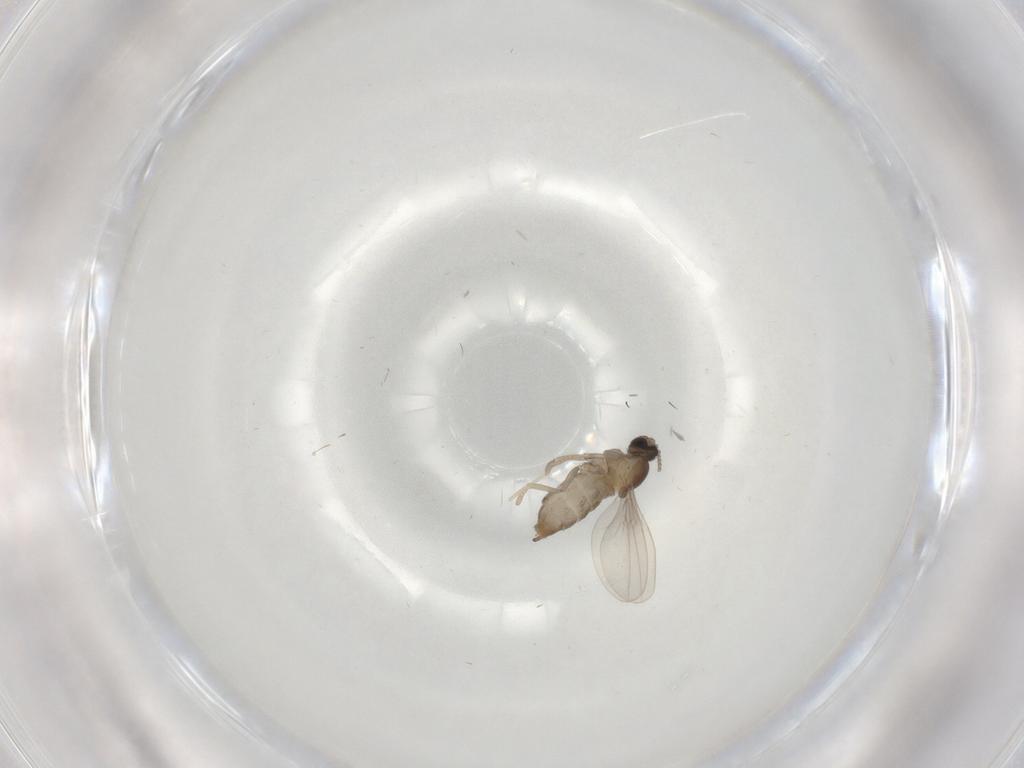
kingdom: Animalia
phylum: Arthropoda
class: Insecta
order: Diptera
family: Cecidomyiidae
